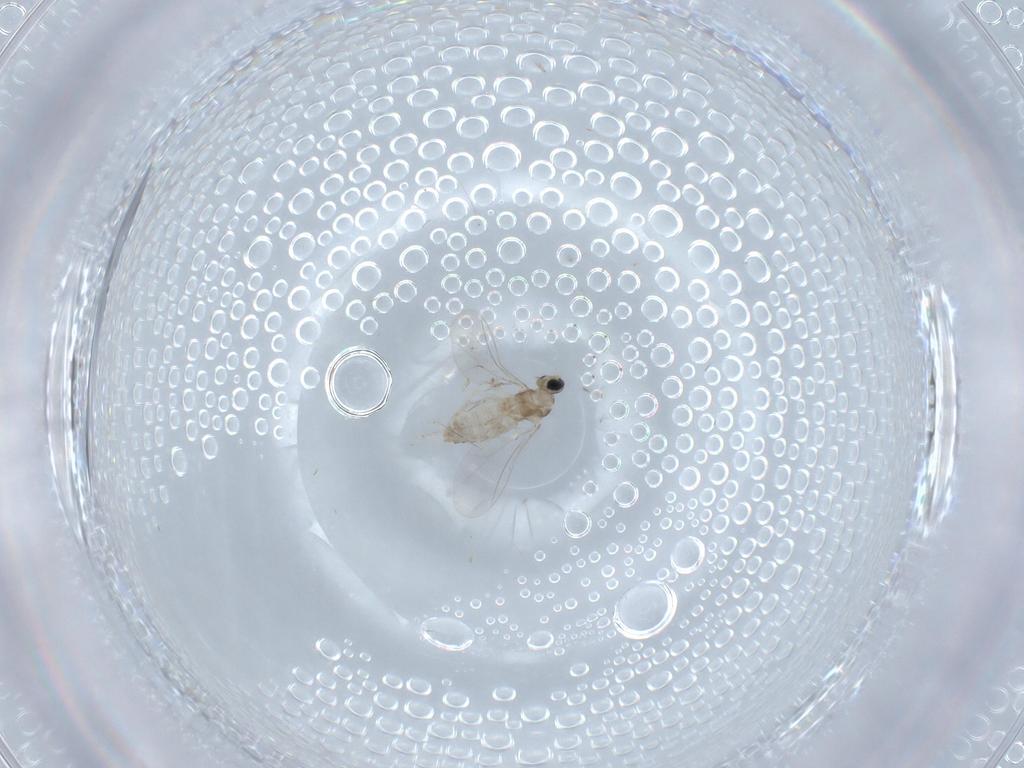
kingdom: Animalia
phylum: Arthropoda
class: Insecta
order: Diptera
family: Cecidomyiidae
